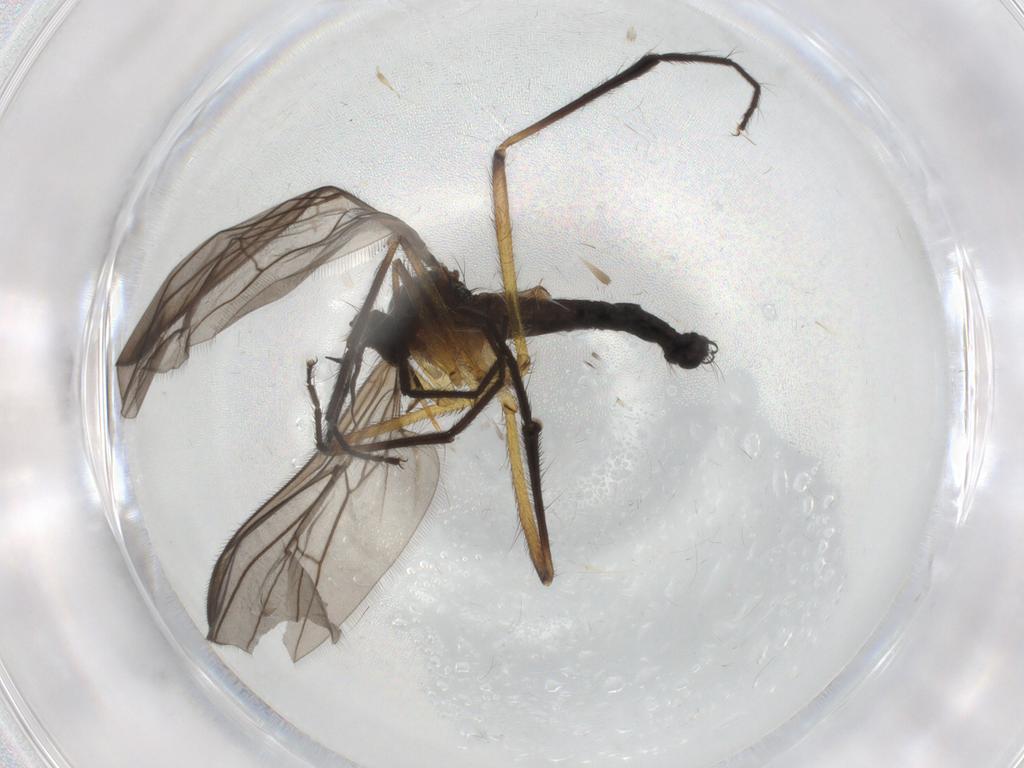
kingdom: Animalia
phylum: Arthropoda
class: Insecta
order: Diptera
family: Empididae
